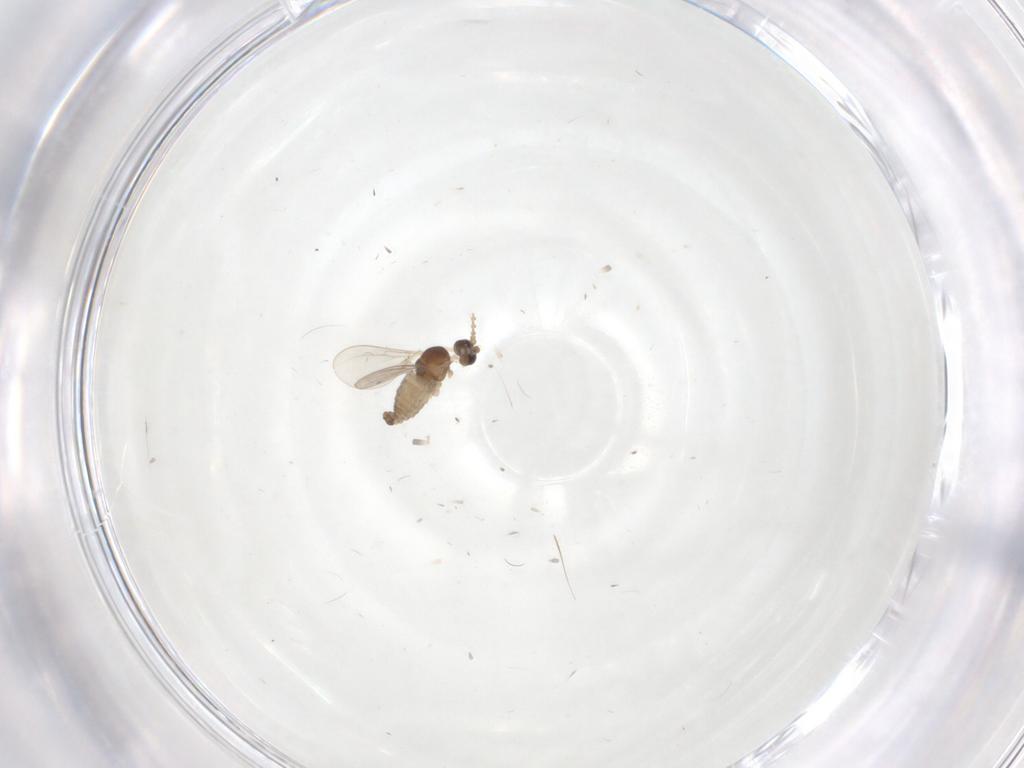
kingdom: Animalia
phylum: Arthropoda
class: Insecta
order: Diptera
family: Cecidomyiidae
